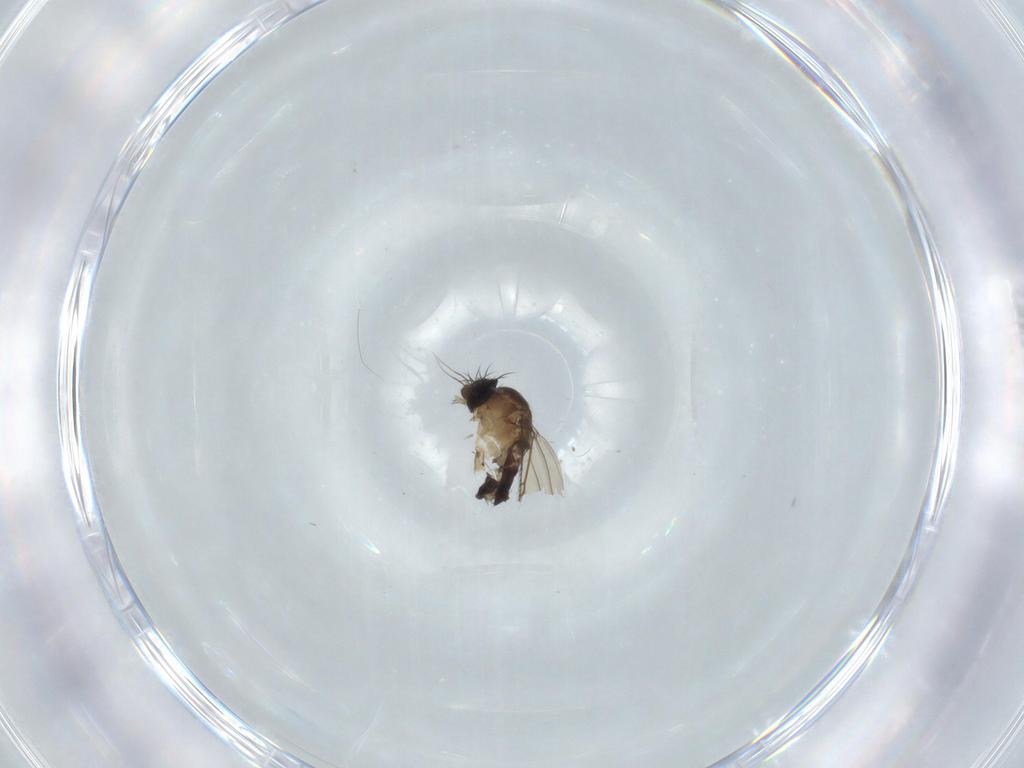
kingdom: Animalia
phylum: Arthropoda
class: Insecta
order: Diptera
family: Phoridae
